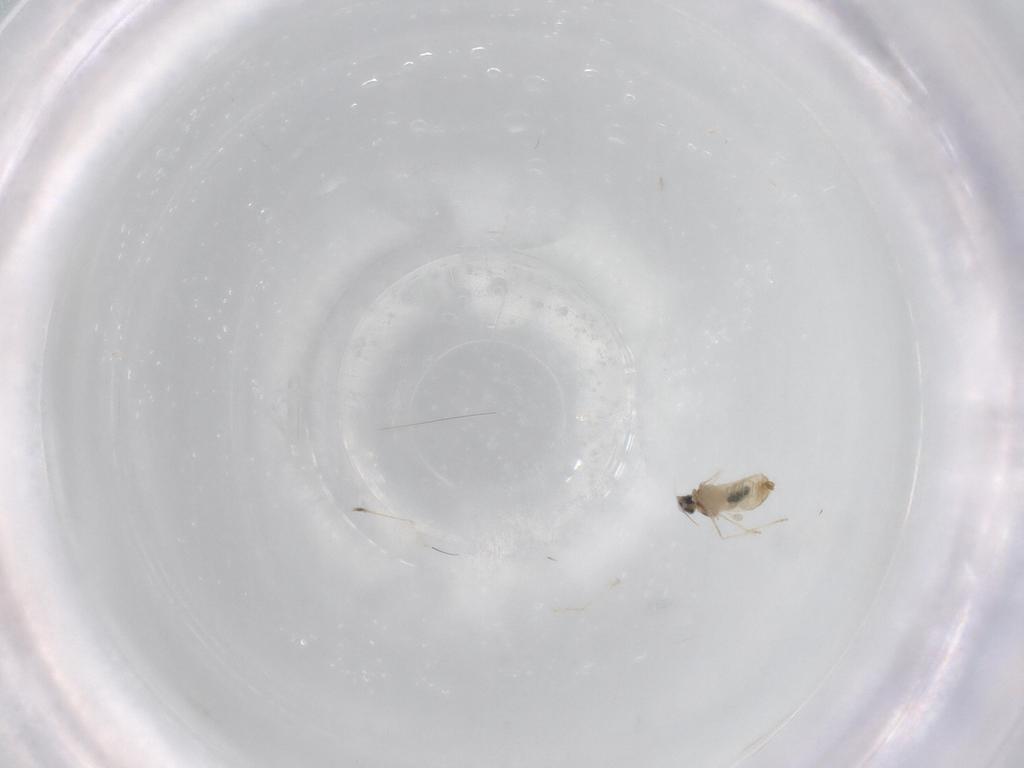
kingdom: Animalia
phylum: Arthropoda
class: Insecta
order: Diptera
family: Cecidomyiidae
